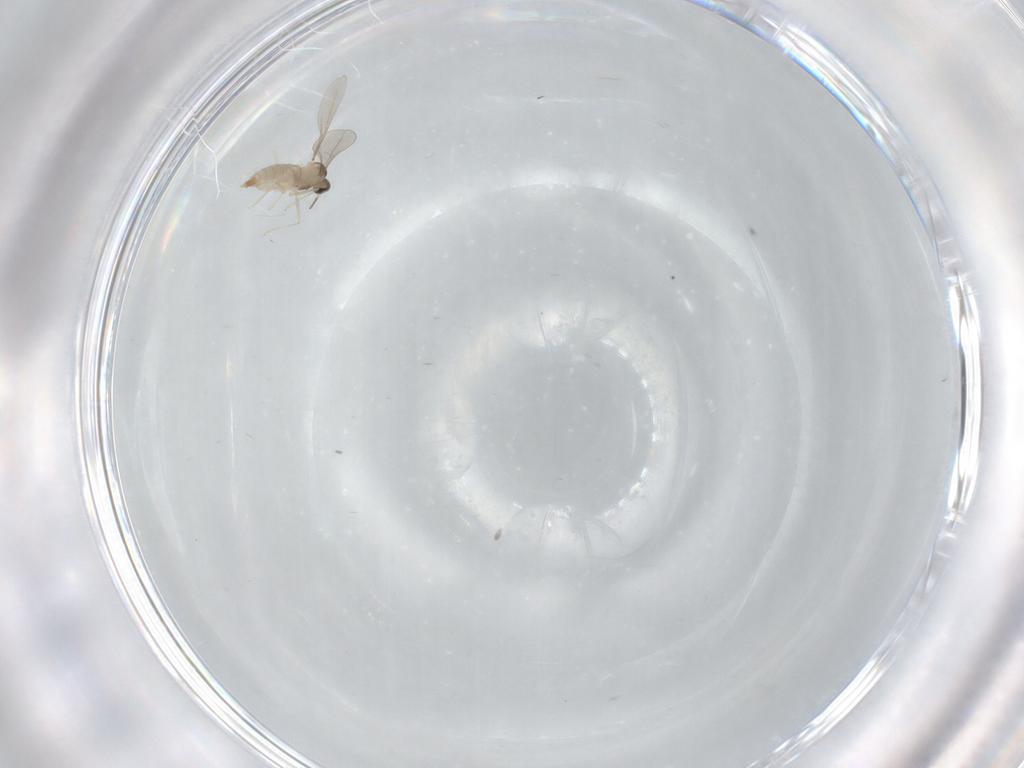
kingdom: Animalia
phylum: Arthropoda
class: Insecta
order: Diptera
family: Cecidomyiidae
